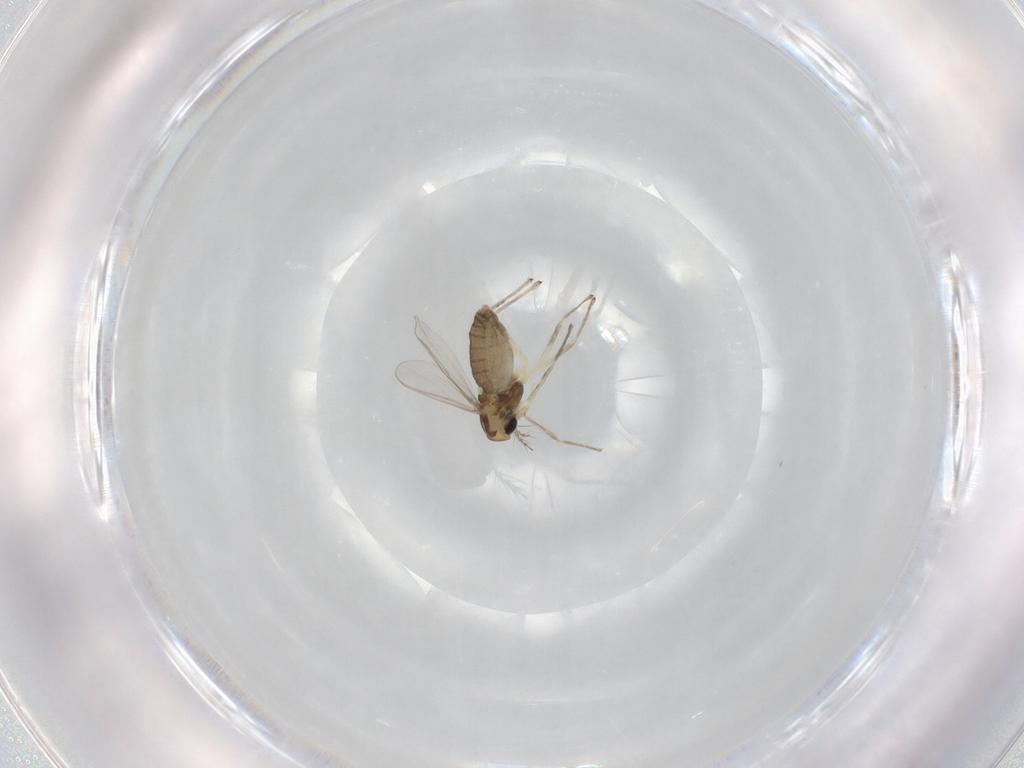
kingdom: Animalia
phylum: Arthropoda
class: Insecta
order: Diptera
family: Chironomidae
